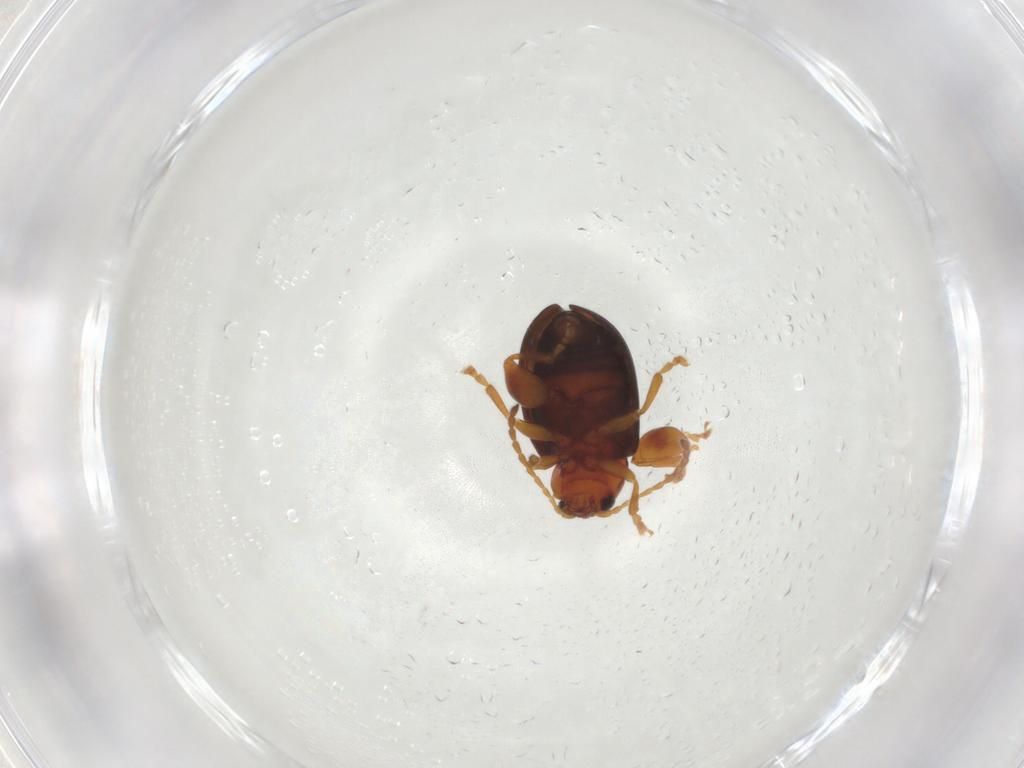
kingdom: Animalia
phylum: Arthropoda
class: Insecta
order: Coleoptera
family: Chrysomelidae
